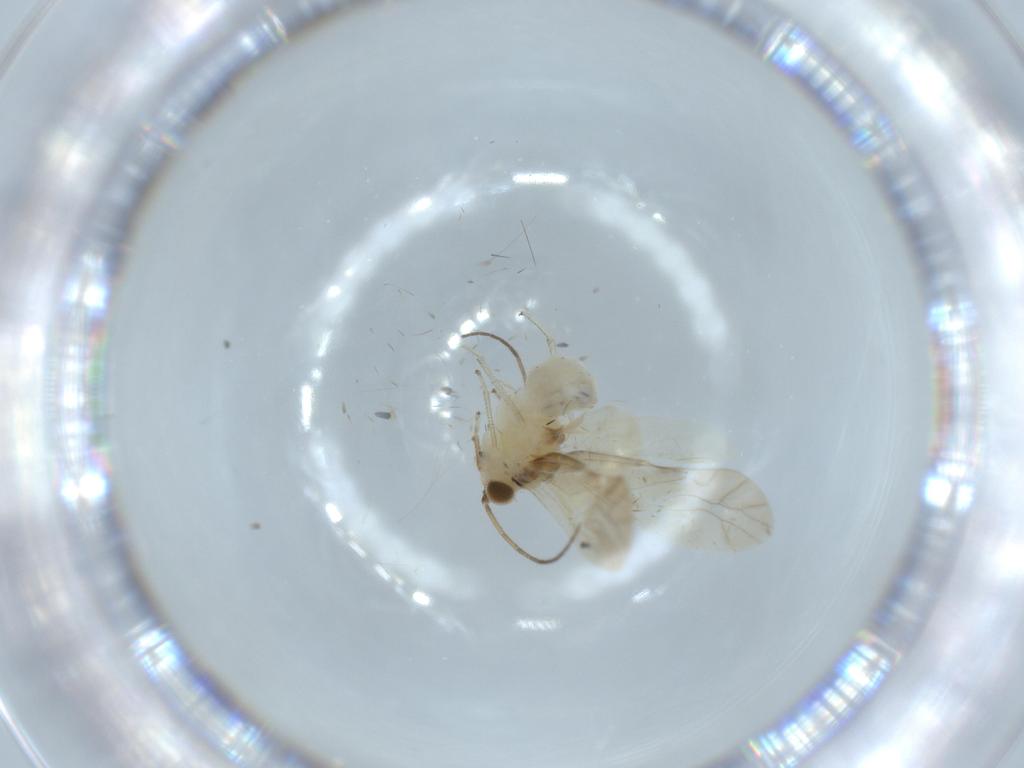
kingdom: Animalia
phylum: Arthropoda
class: Insecta
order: Psocodea
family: Caeciliusidae
